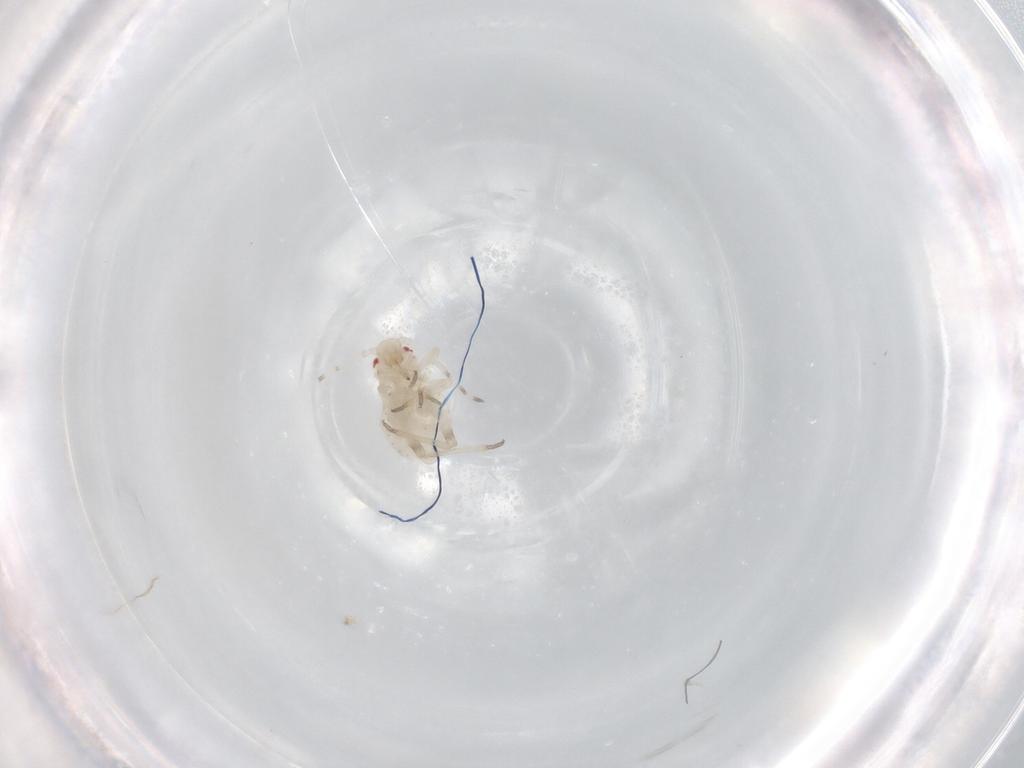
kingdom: Animalia
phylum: Arthropoda
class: Insecta
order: Hemiptera
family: Aphididae
